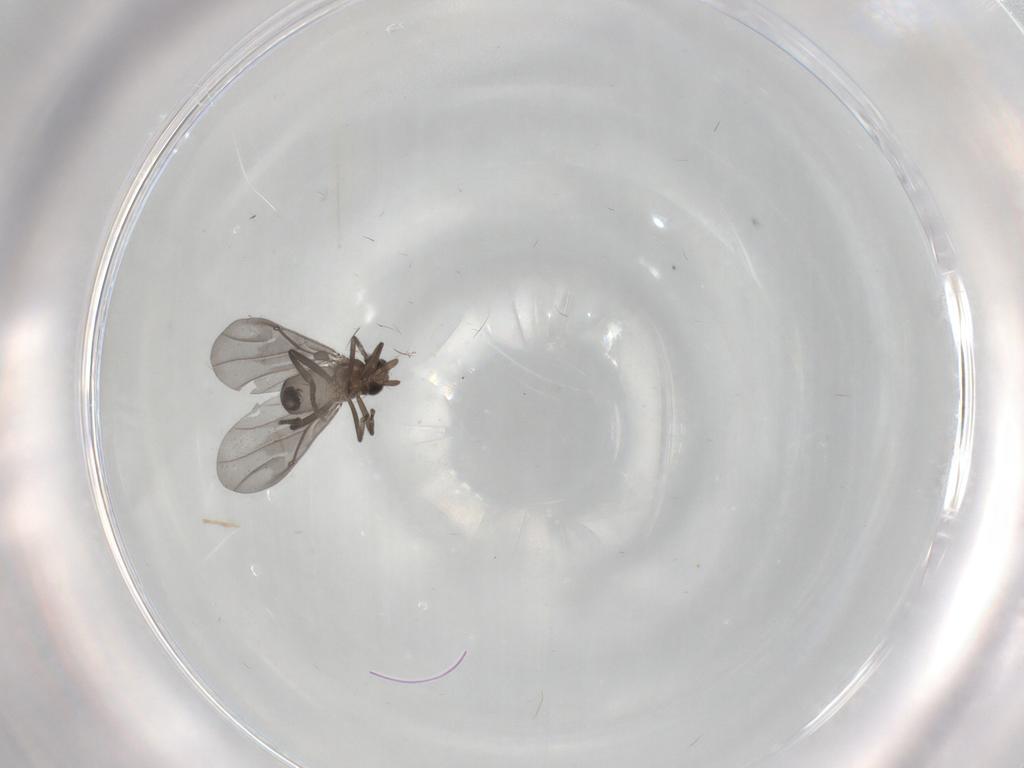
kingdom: Animalia
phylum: Arthropoda
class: Insecta
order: Diptera
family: Phoridae
